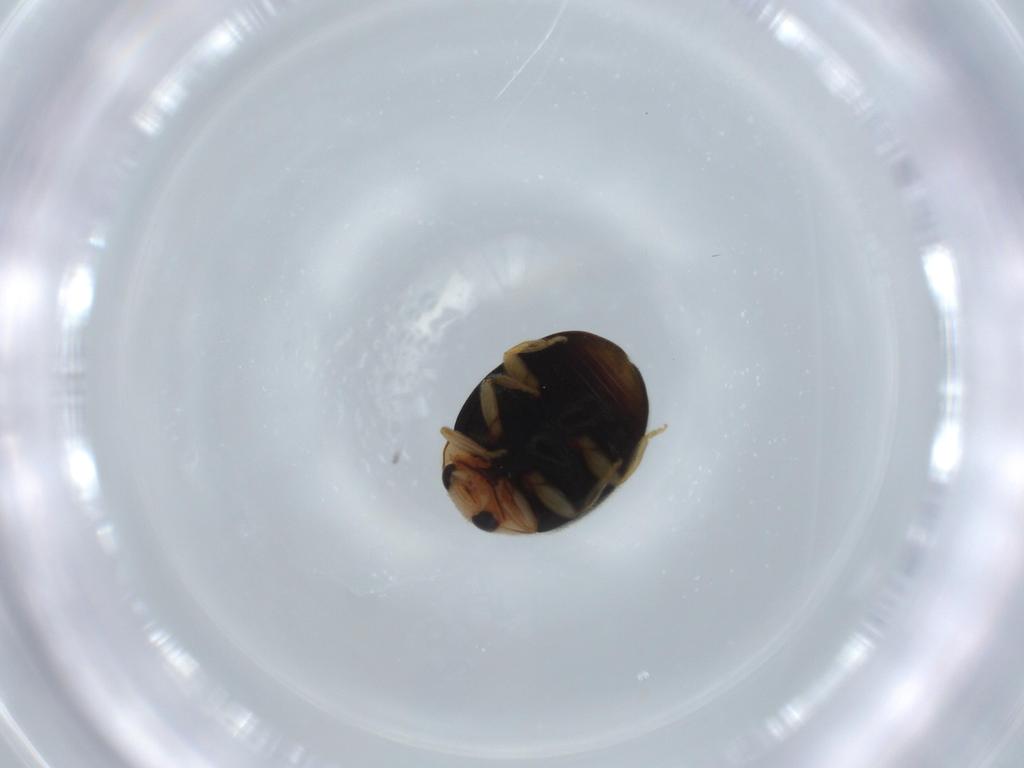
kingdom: Animalia
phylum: Arthropoda
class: Insecta
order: Coleoptera
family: Coccinellidae
